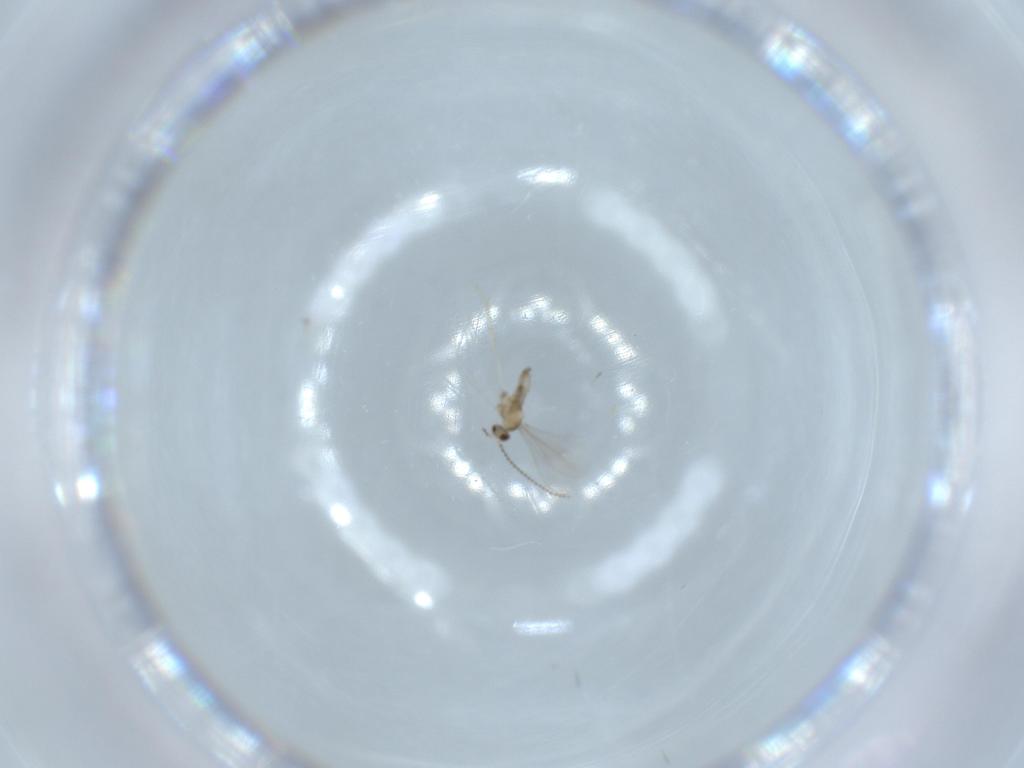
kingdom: Animalia
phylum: Arthropoda
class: Insecta
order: Diptera
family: Cecidomyiidae
